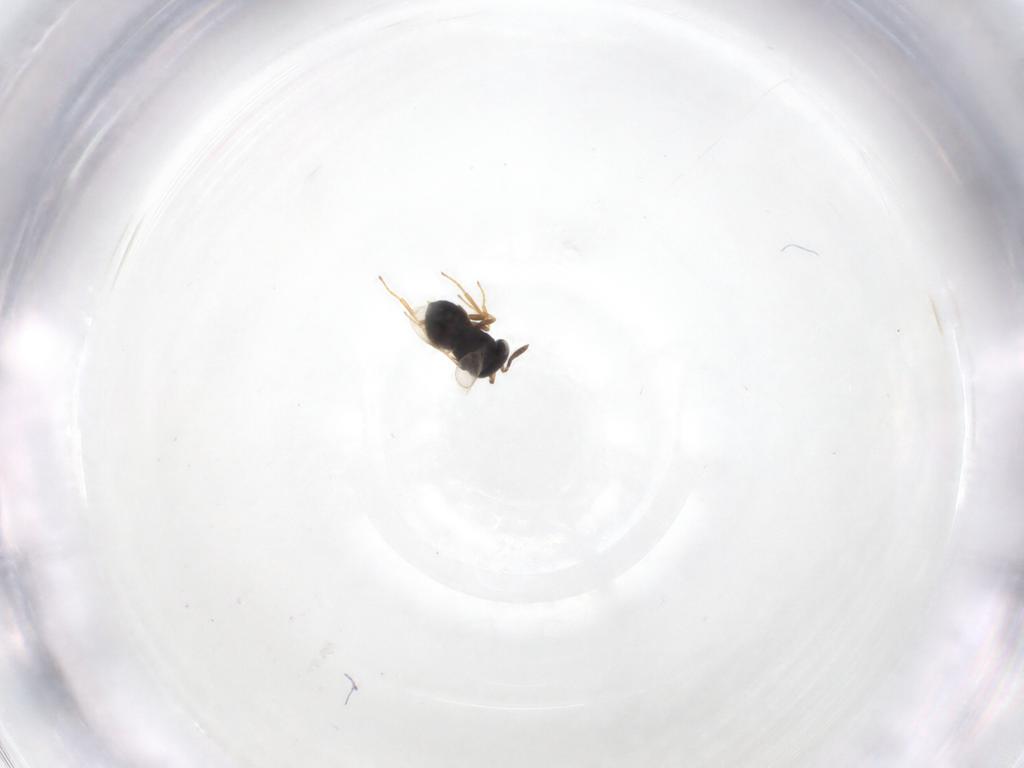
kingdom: Animalia
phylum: Arthropoda
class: Insecta
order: Hymenoptera
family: Scelionidae
